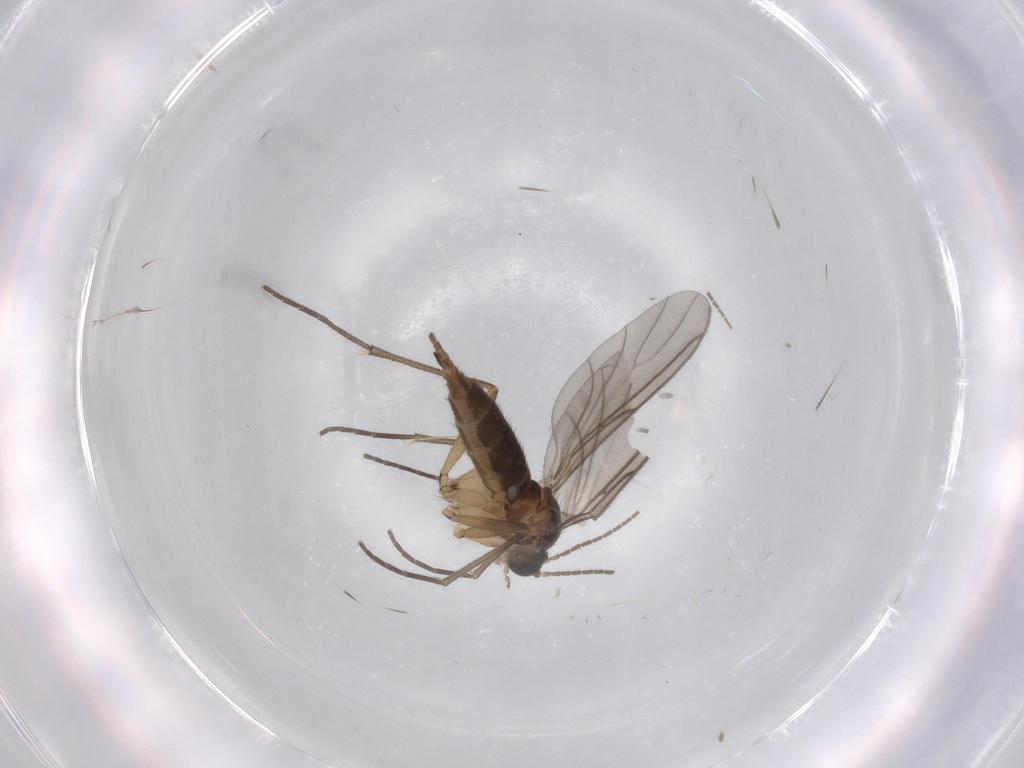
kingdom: Animalia
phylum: Arthropoda
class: Insecta
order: Diptera
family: Sciaridae
